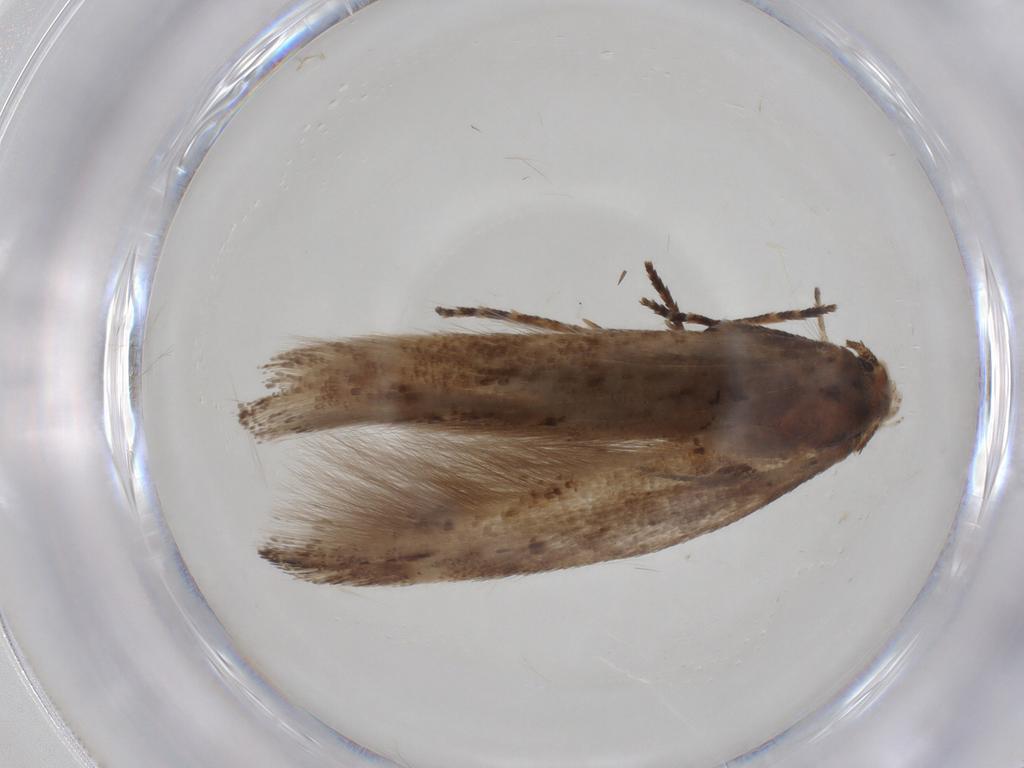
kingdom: Animalia
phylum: Arthropoda
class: Insecta
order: Lepidoptera
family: Momphidae
